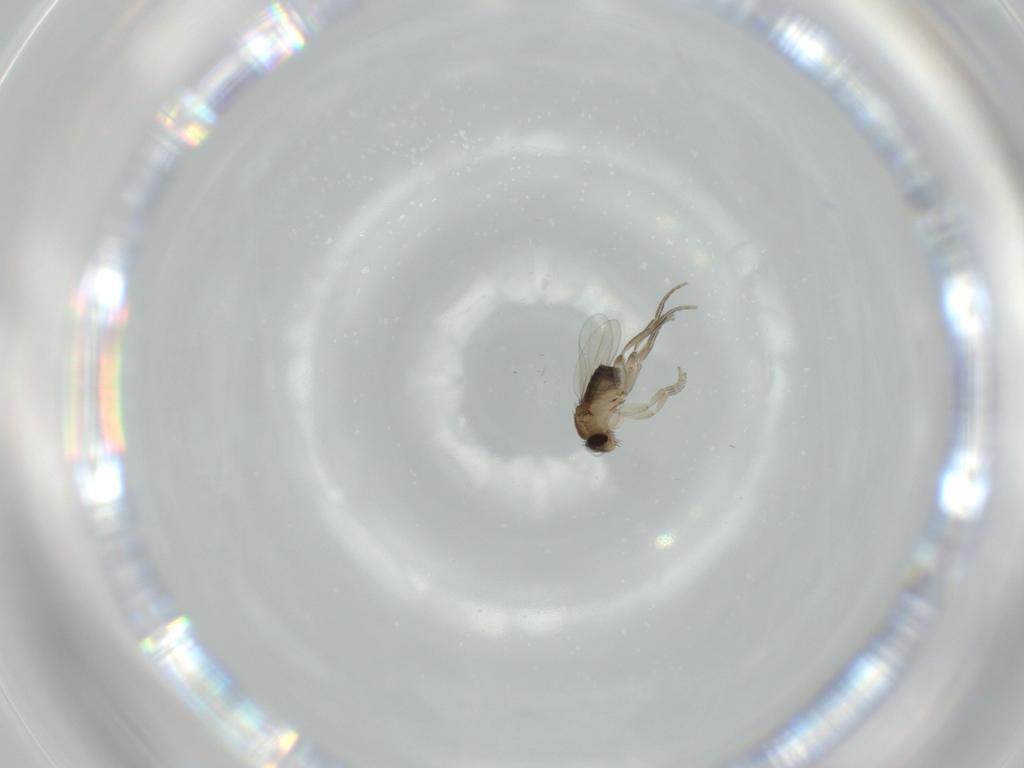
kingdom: Animalia
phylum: Arthropoda
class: Insecta
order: Diptera
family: Phoridae
